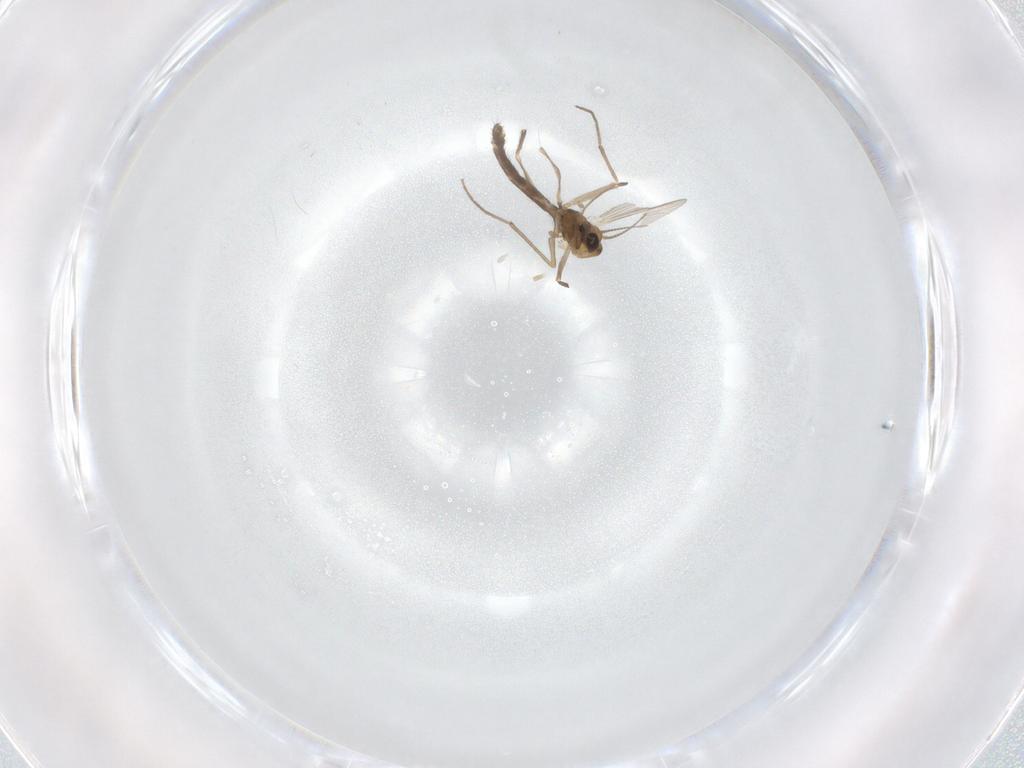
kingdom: Animalia
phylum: Arthropoda
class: Insecta
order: Diptera
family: Chironomidae
